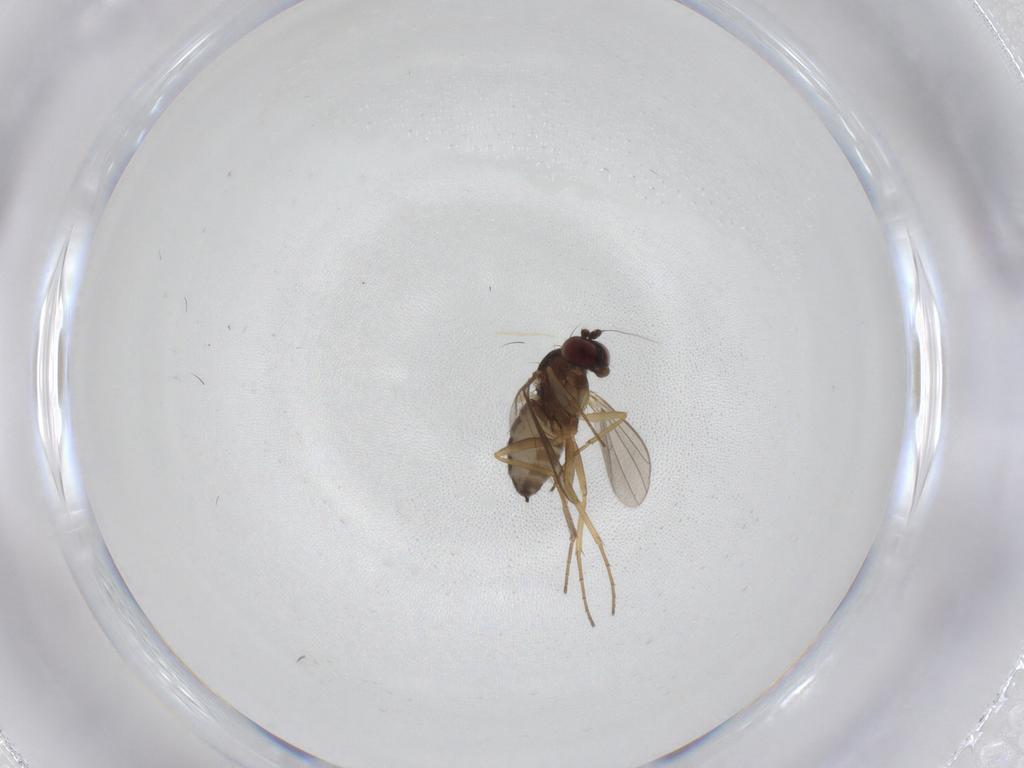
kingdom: Animalia
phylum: Arthropoda
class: Insecta
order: Diptera
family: Dolichopodidae
